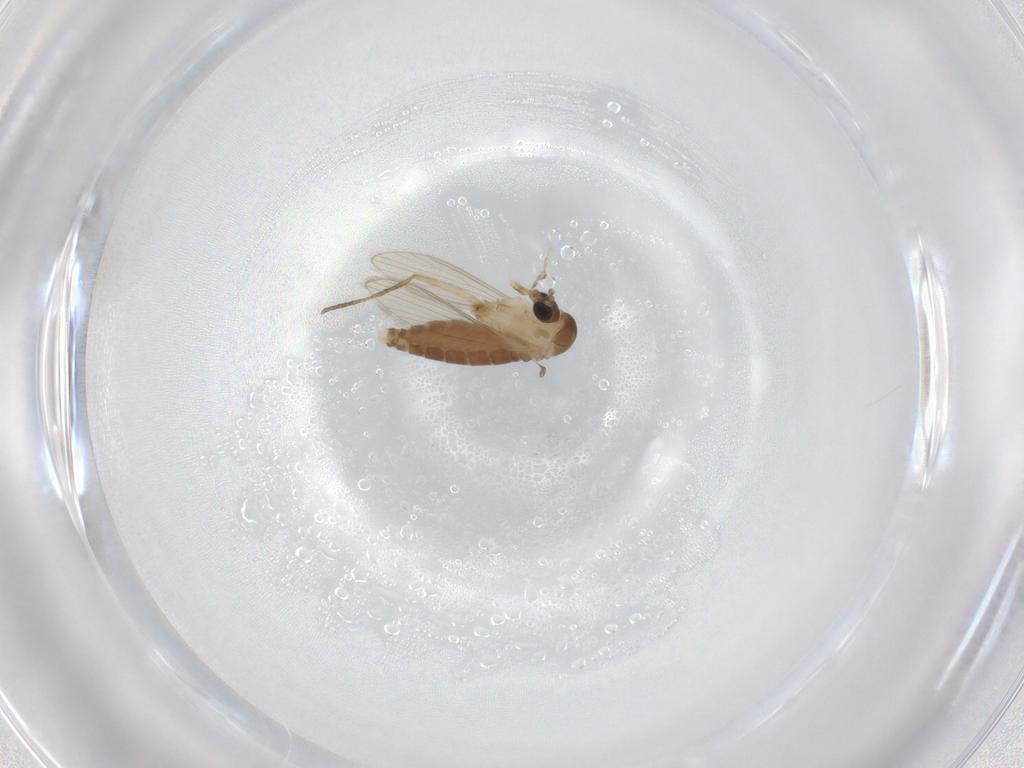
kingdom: Animalia
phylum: Arthropoda
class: Insecta
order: Diptera
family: Psychodidae
